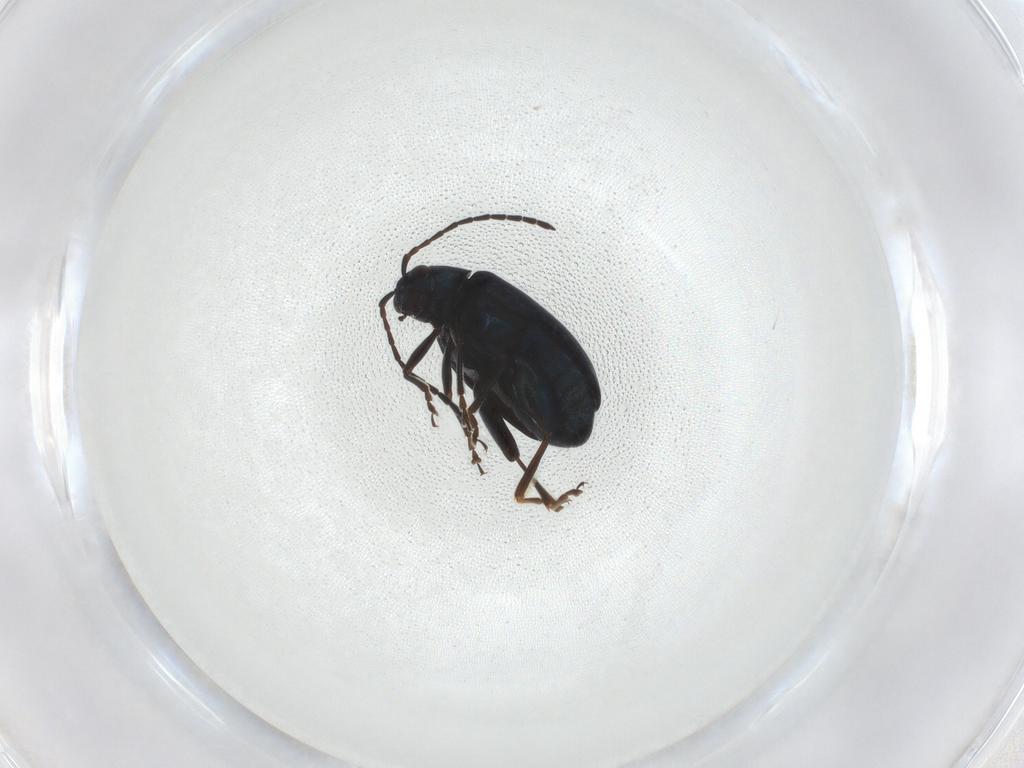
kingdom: Animalia
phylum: Arthropoda
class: Insecta
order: Coleoptera
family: Chrysomelidae
